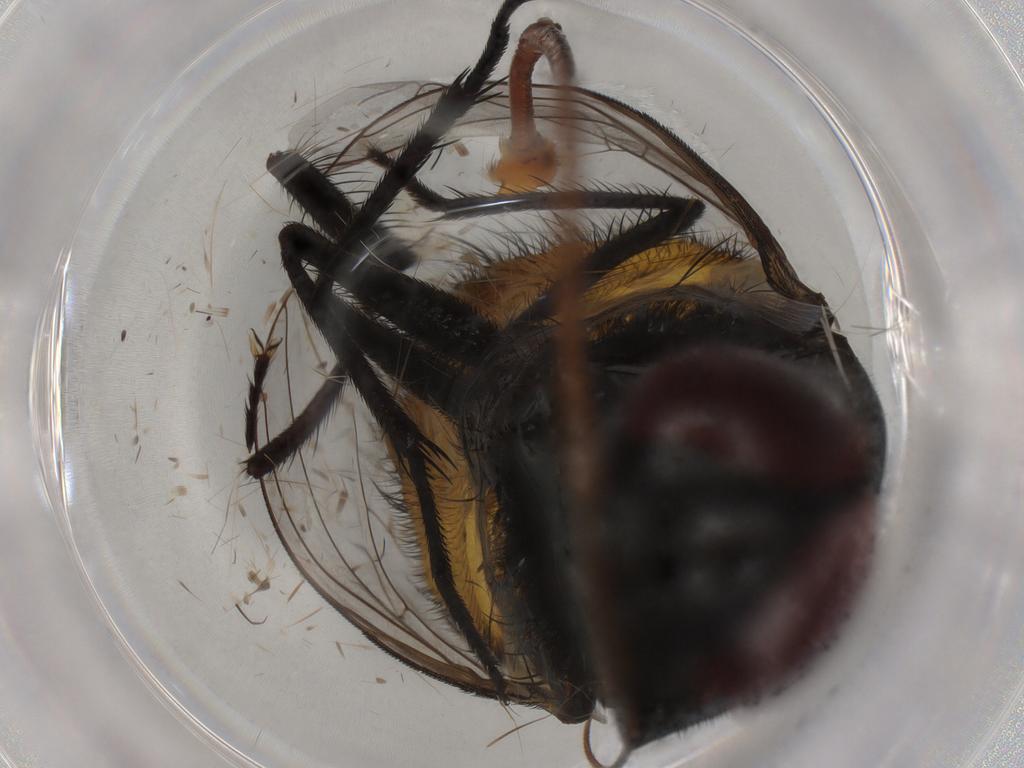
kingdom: Animalia
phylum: Arthropoda
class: Insecta
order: Diptera
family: Cecidomyiidae
